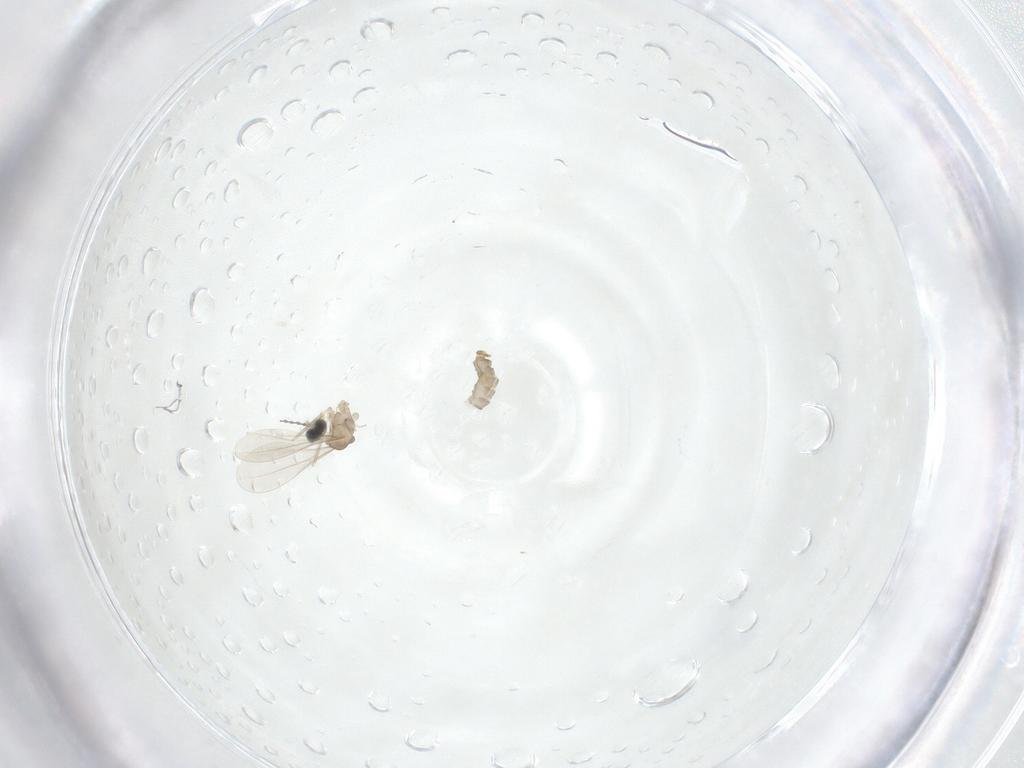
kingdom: Animalia
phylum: Arthropoda
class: Insecta
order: Diptera
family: Cecidomyiidae
